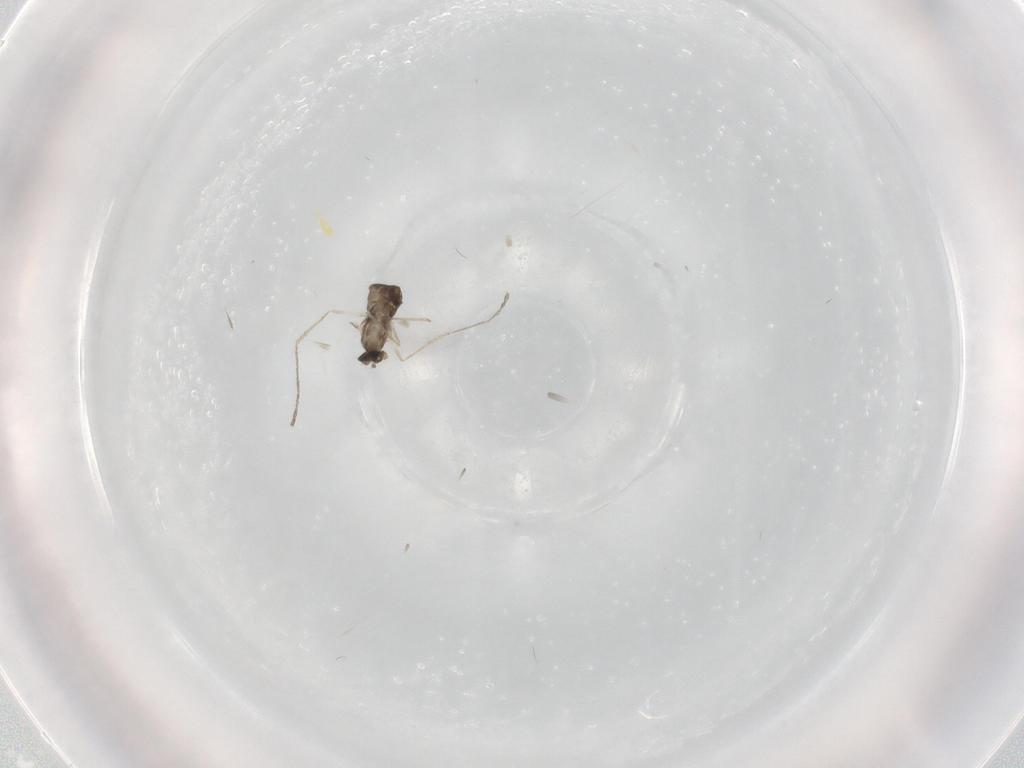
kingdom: Animalia
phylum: Arthropoda
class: Insecta
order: Diptera
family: Cecidomyiidae
